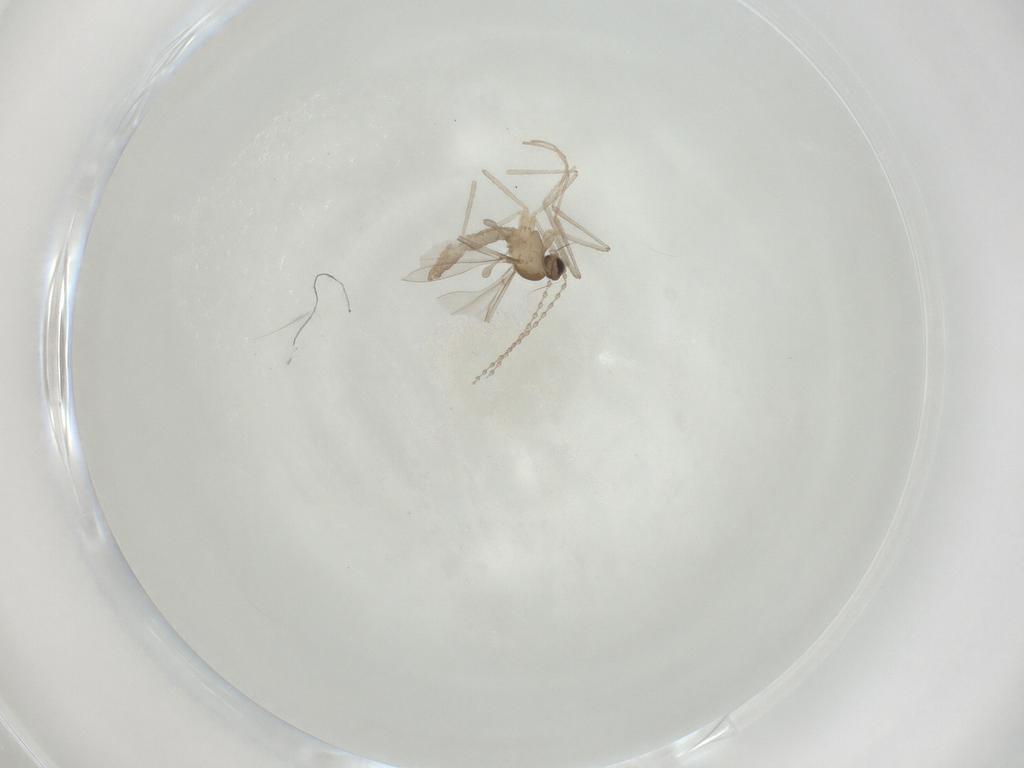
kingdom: Animalia
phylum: Arthropoda
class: Insecta
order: Diptera
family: Cecidomyiidae
